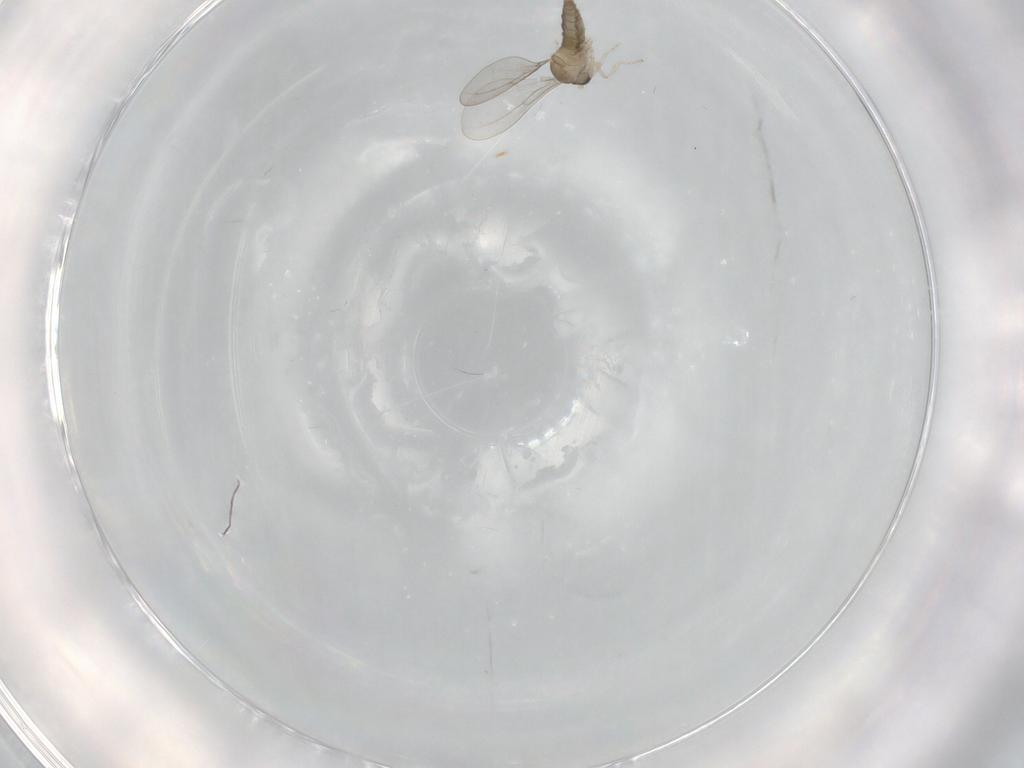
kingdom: Animalia
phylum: Arthropoda
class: Insecta
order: Diptera
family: Cecidomyiidae
